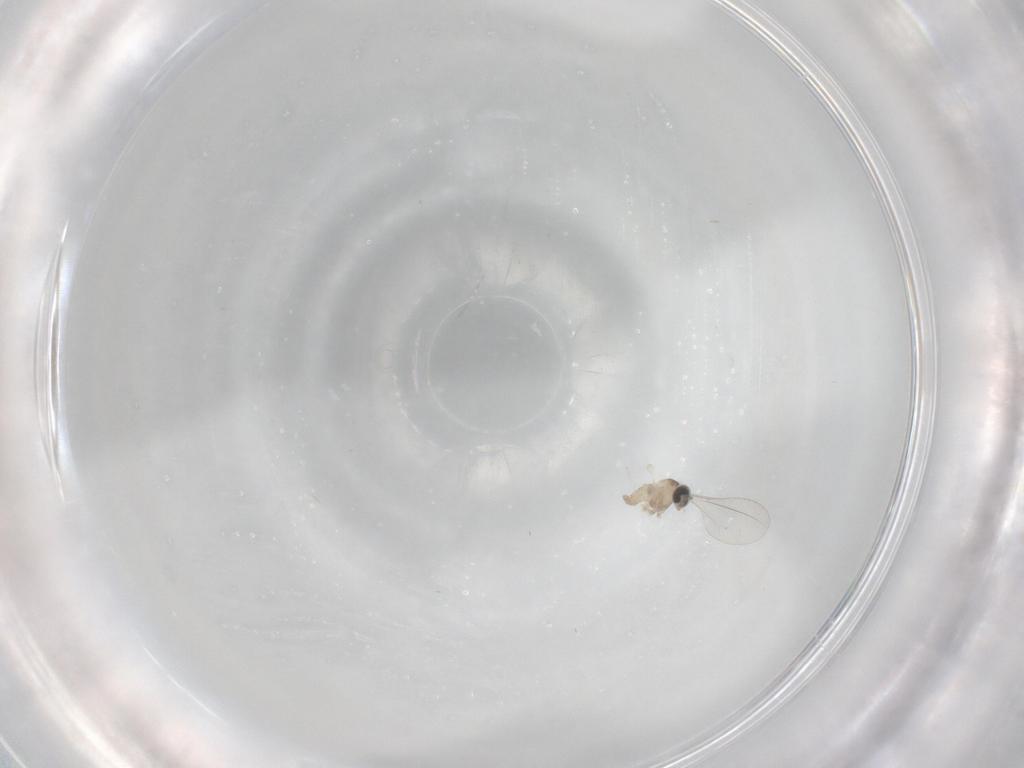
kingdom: Animalia
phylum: Arthropoda
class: Insecta
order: Diptera
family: Cecidomyiidae
